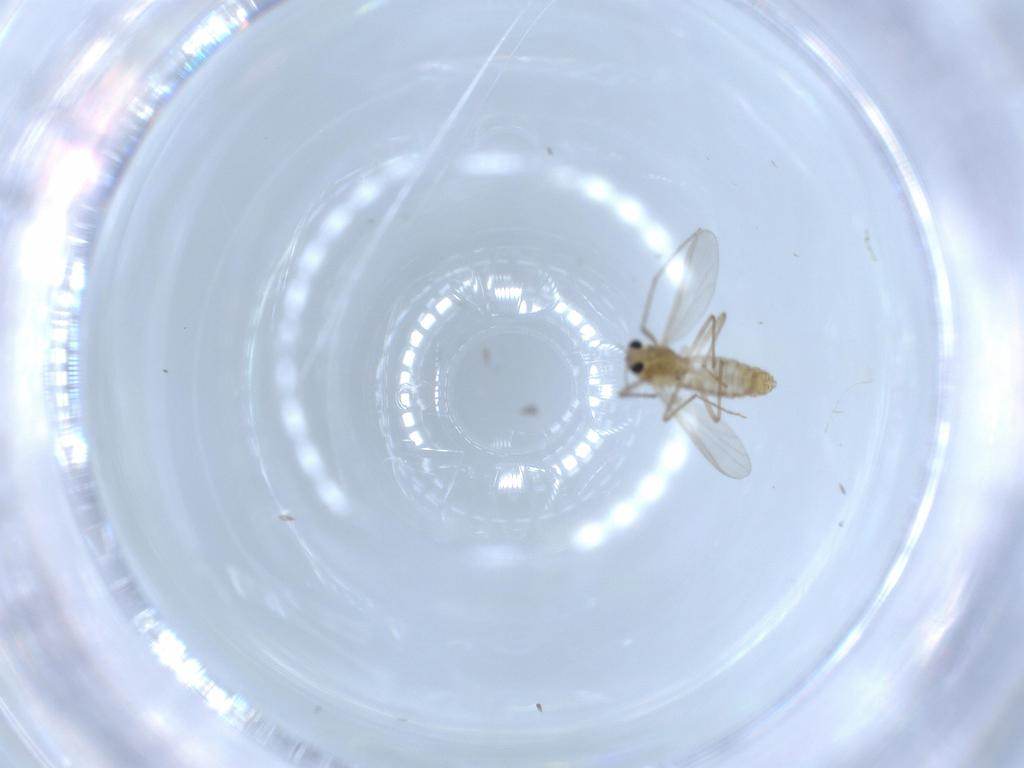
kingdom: Animalia
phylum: Arthropoda
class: Insecta
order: Diptera
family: Chironomidae
